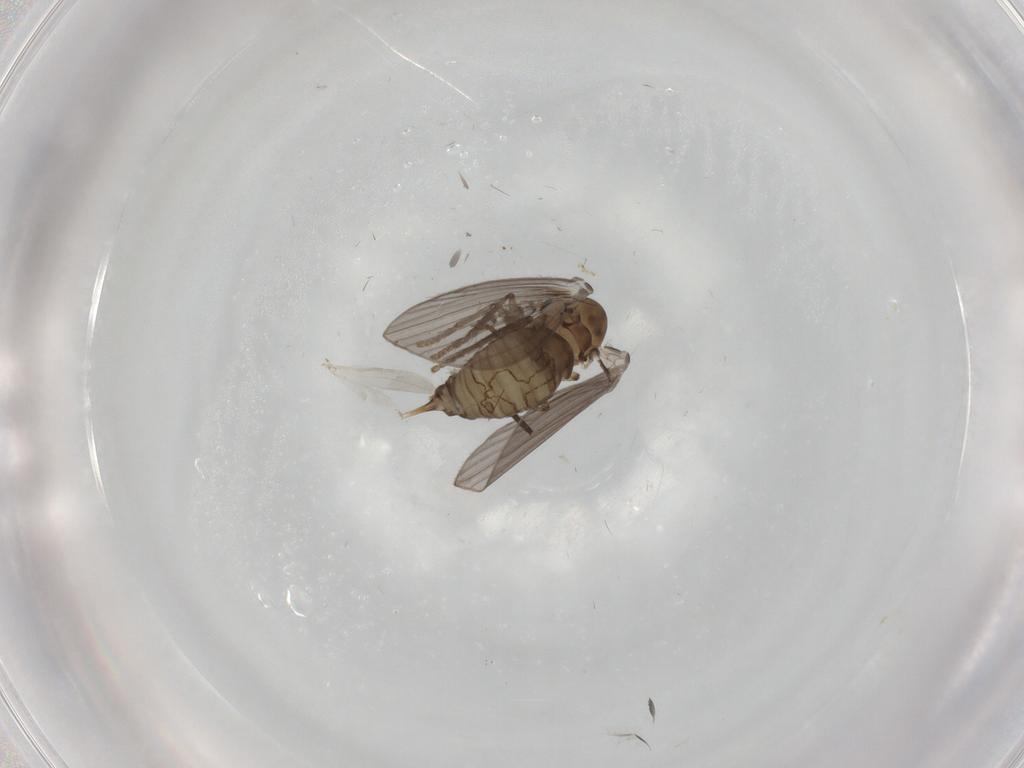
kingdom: Animalia
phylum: Arthropoda
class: Insecta
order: Diptera
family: Psychodidae
